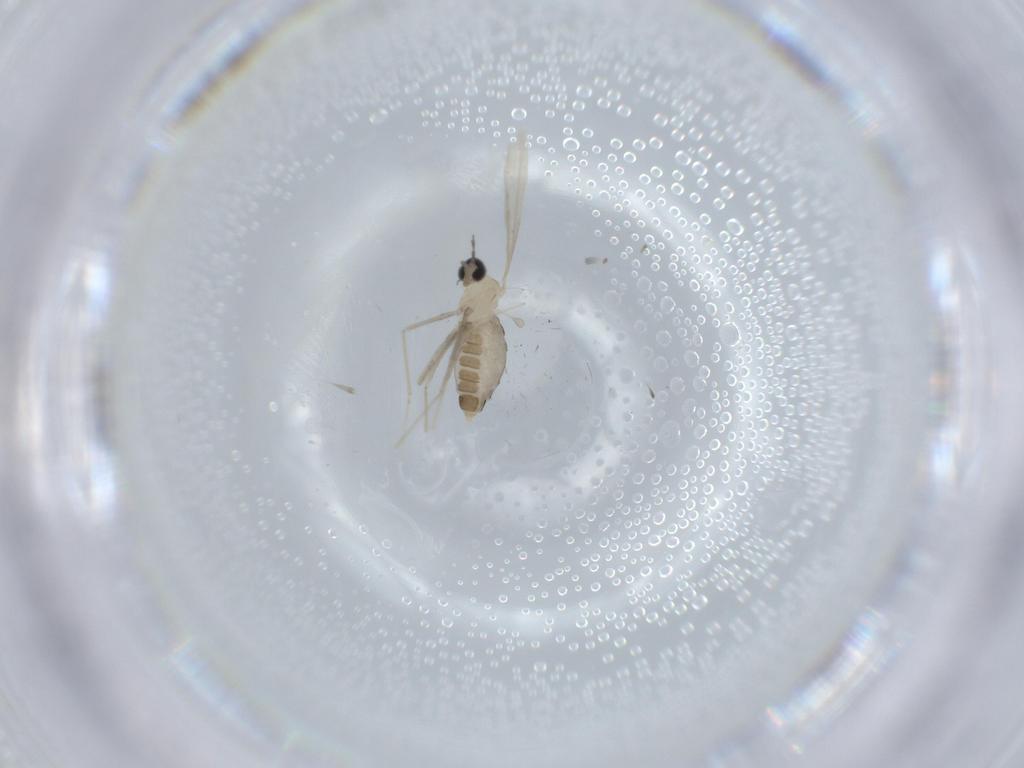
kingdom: Animalia
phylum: Arthropoda
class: Insecta
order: Diptera
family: Cecidomyiidae
